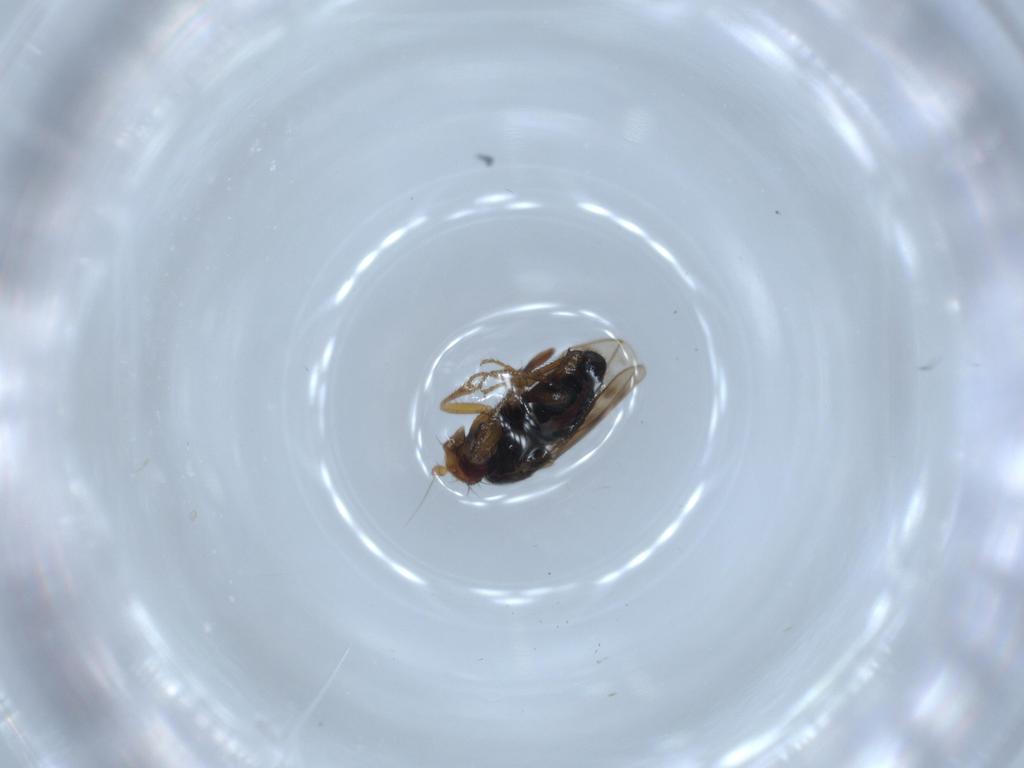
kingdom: Animalia
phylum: Arthropoda
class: Insecta
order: Diptera
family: Sphaeroceridae
